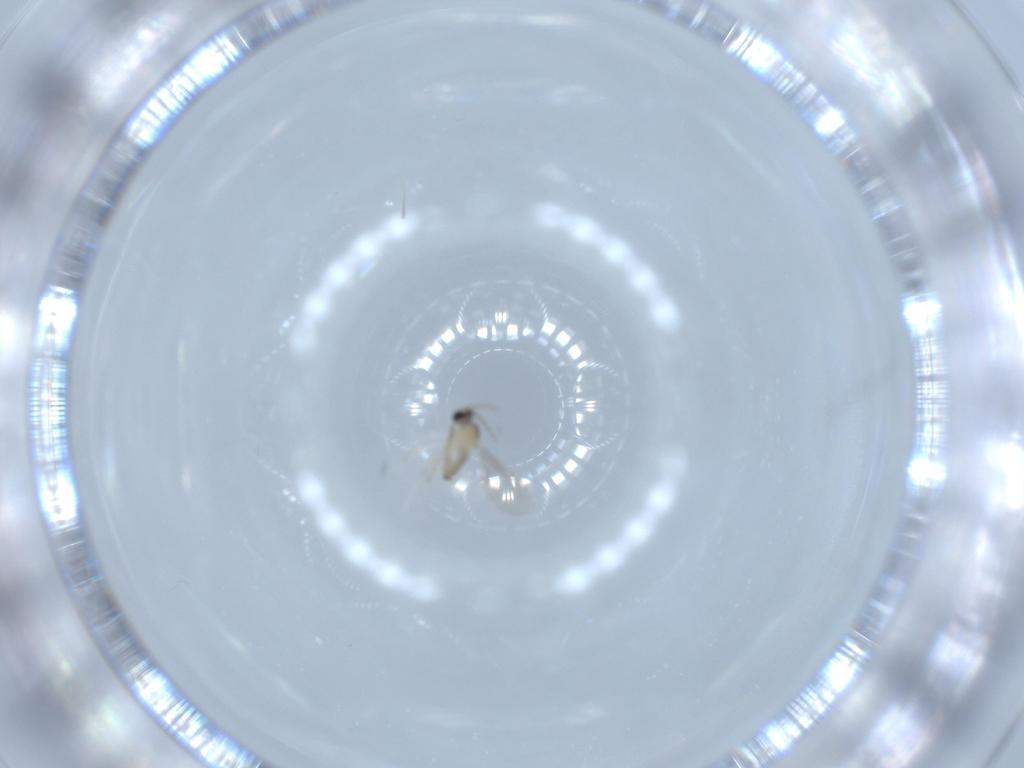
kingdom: Animalia
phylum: Arthropoda
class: Insecta
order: Diptera
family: Cecidomyiidae
